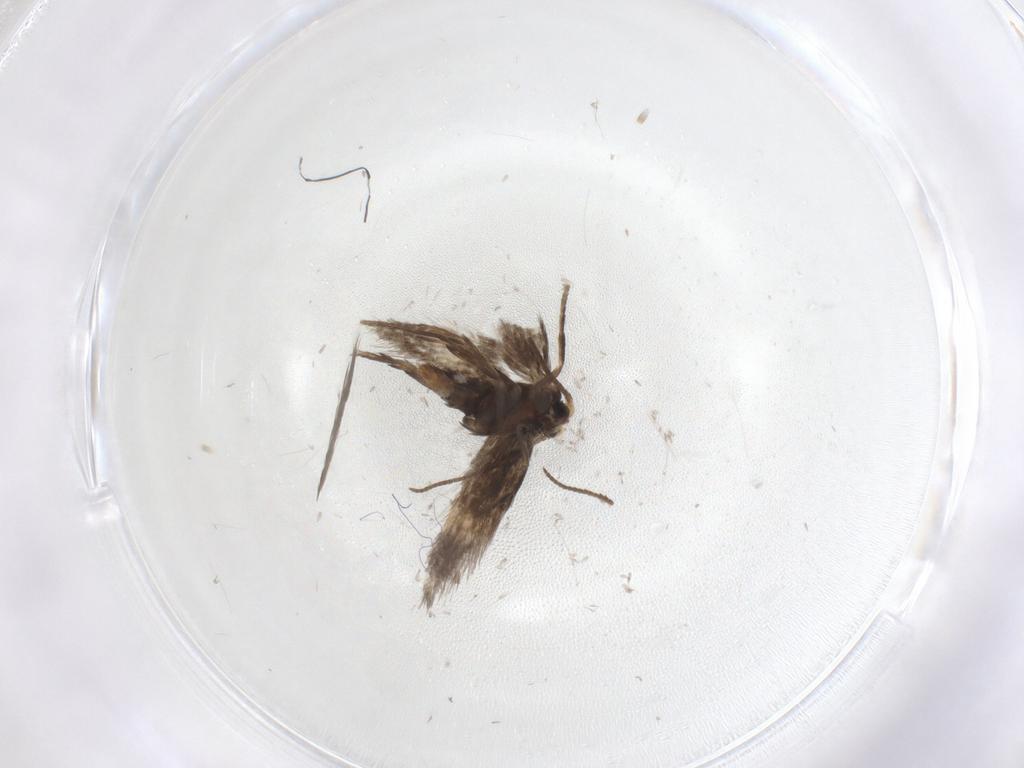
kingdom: Animalia
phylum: Arthropoda
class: Insecta
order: Lepidoptera
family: Nepticulidae
